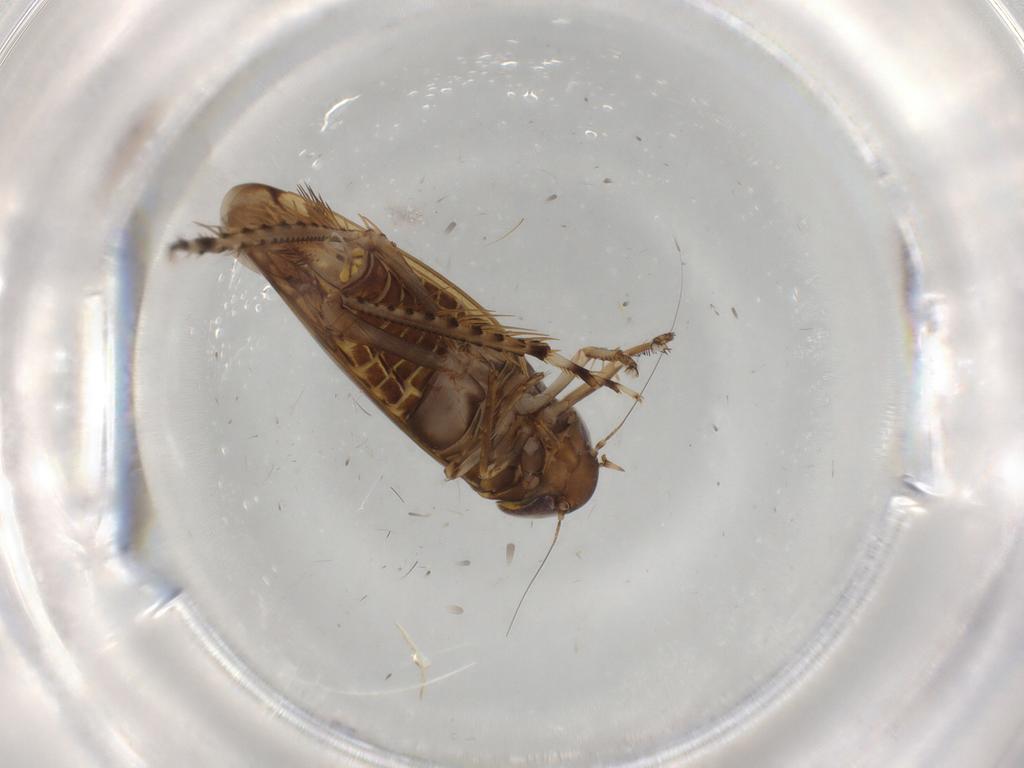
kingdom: Animalia
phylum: Arthropoda
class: Insecta
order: Hemiptera
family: Cicadellidae
